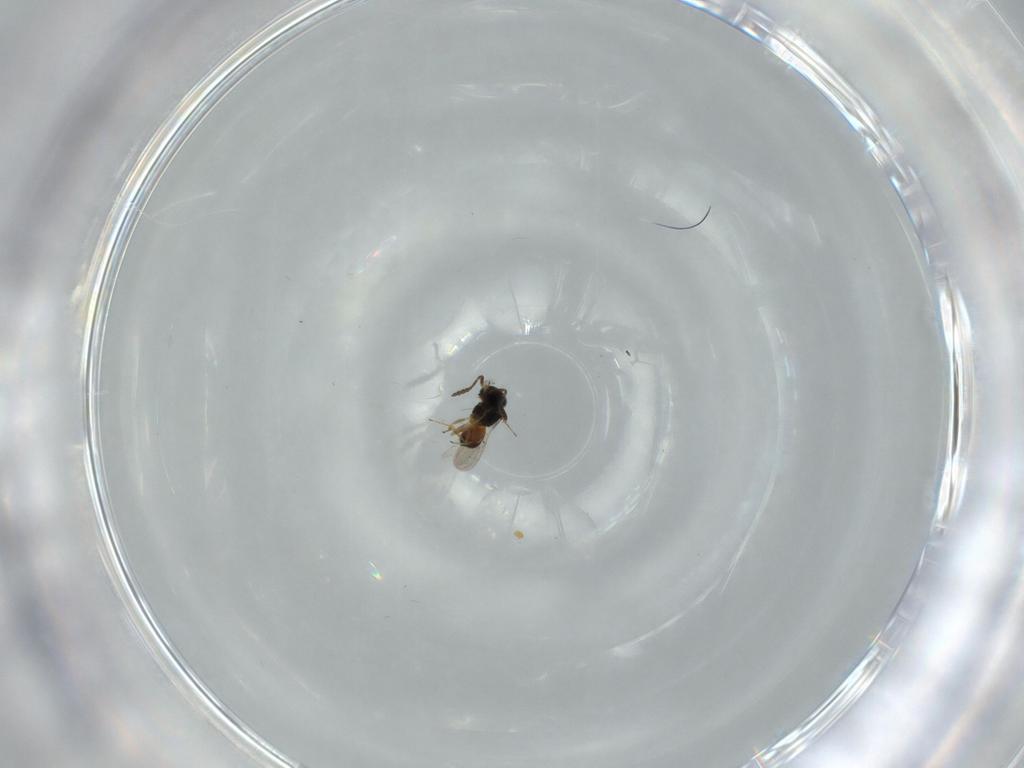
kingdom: Animalia
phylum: Arthropoda
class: Insecta
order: Hymenoptera
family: Scelionidae
